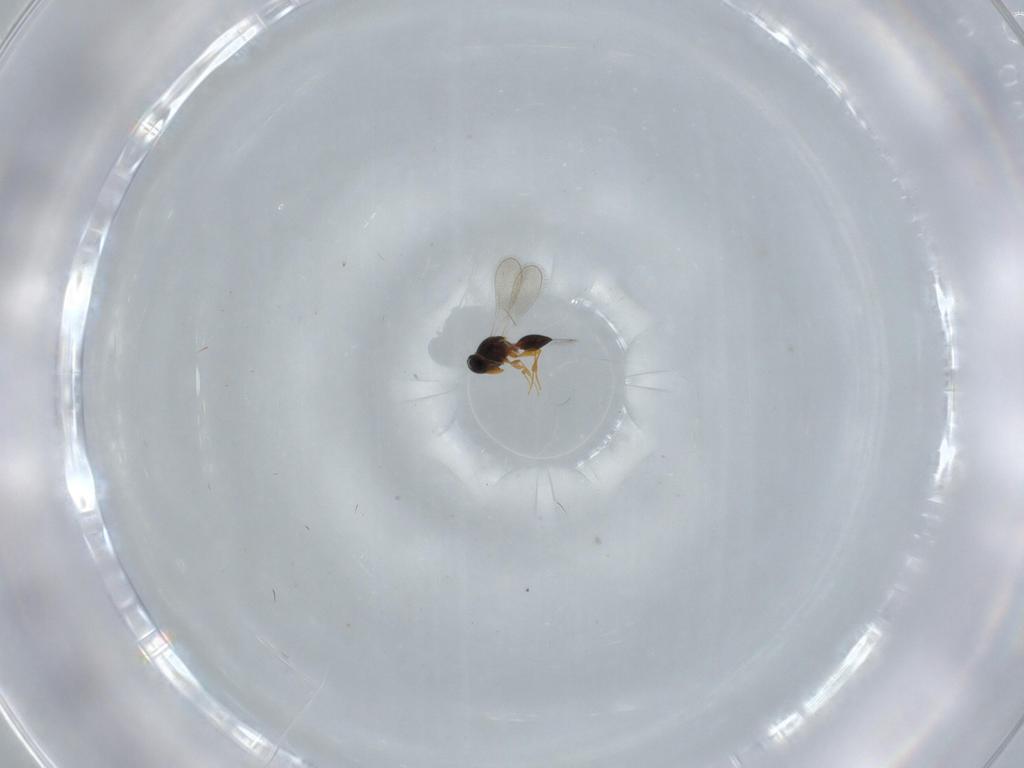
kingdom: Animalia
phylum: Arthropoda
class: Insecta
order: Hymenoptera
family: Platygastridae
